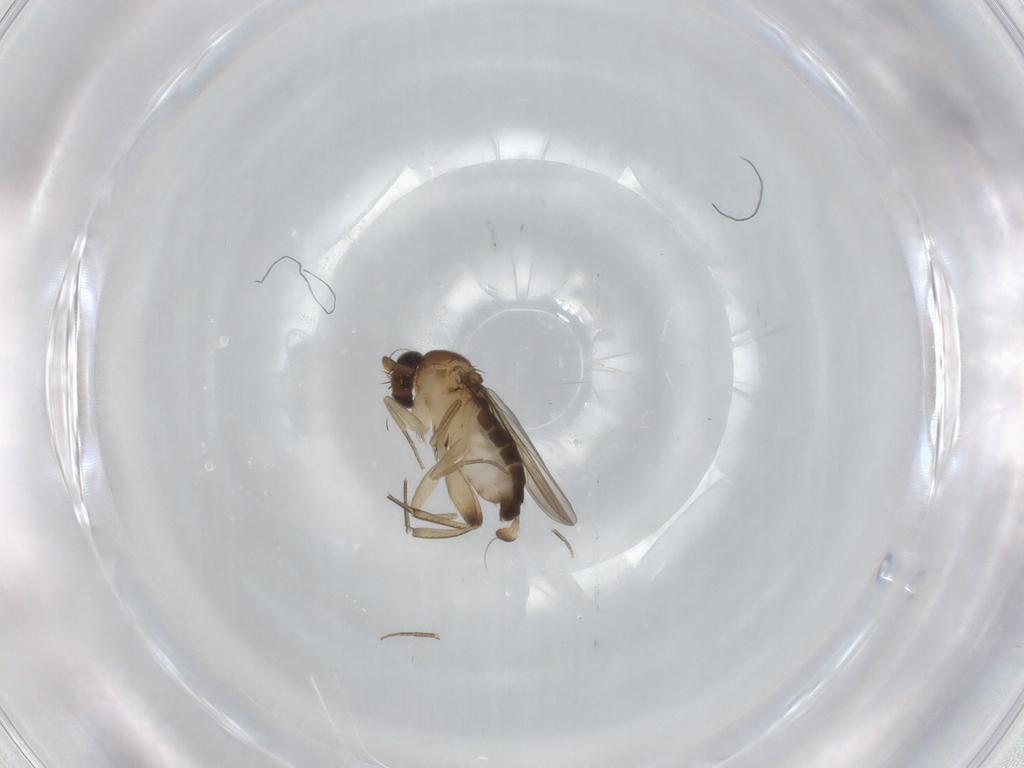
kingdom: Animalia
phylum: Arthropoda
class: Insecta
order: Diptera
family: Phoridae
